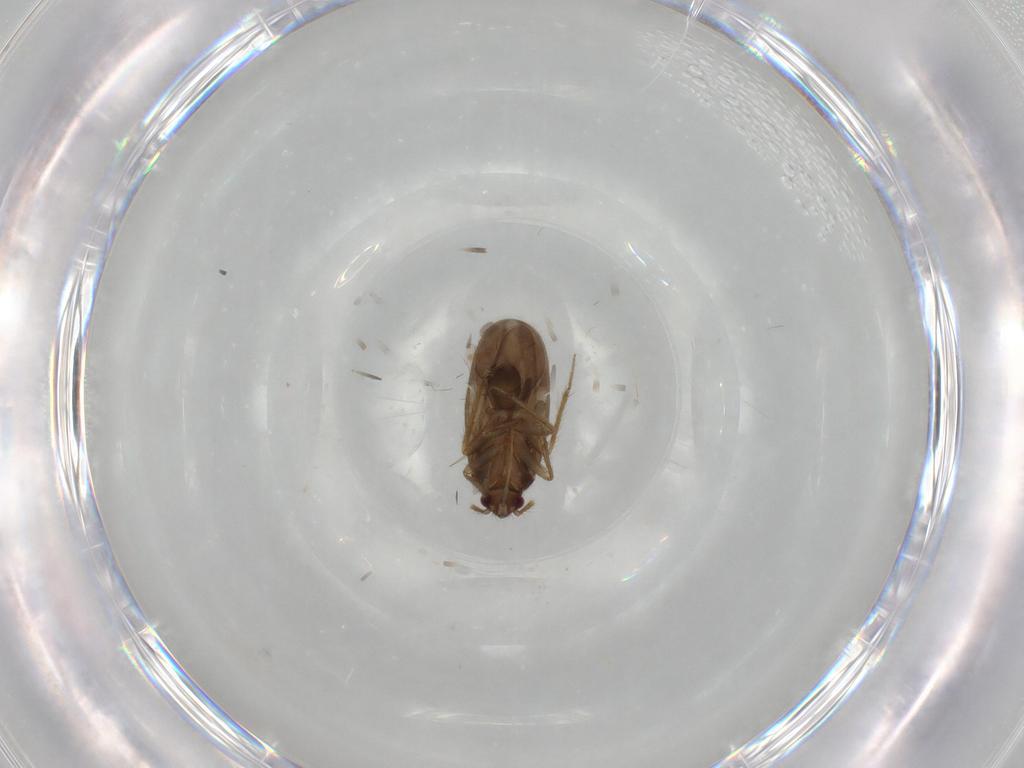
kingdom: Animalia
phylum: Arthropoda
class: Insecta
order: Hemiptera
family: Ceratocombidae
